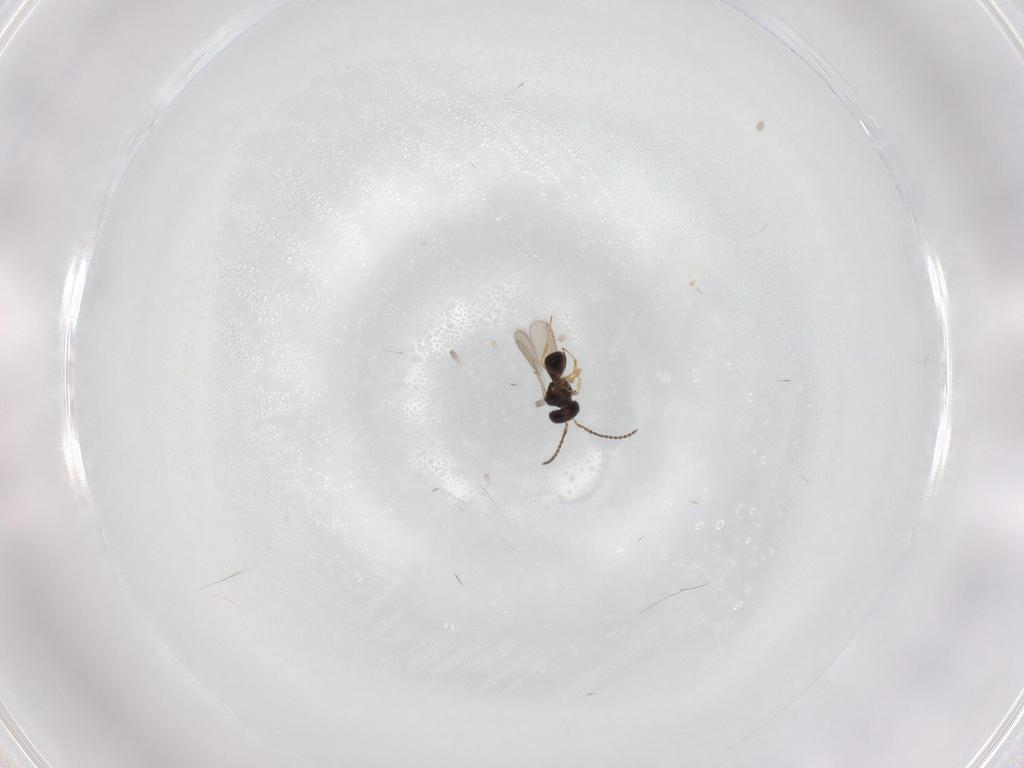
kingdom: Animalia
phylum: Arthropoda
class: Insecta
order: Hymenoptera
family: Scelionidae
